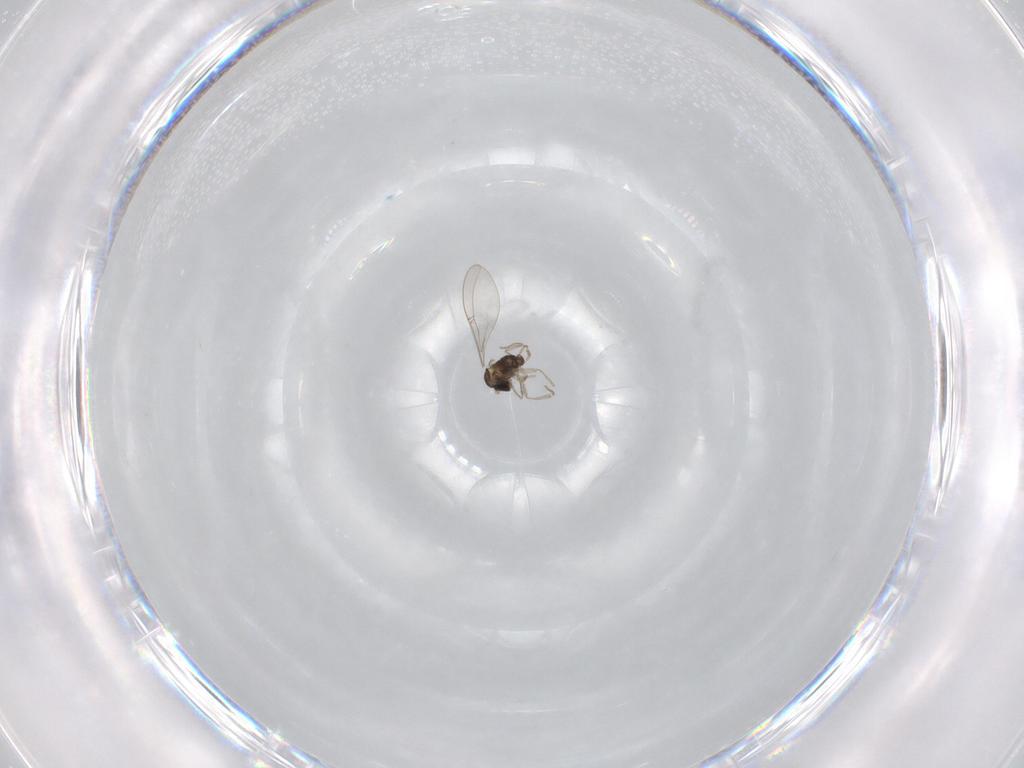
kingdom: Animalia
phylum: Arthropoda
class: Insecta
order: Diptera
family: Cecidomyiidae
